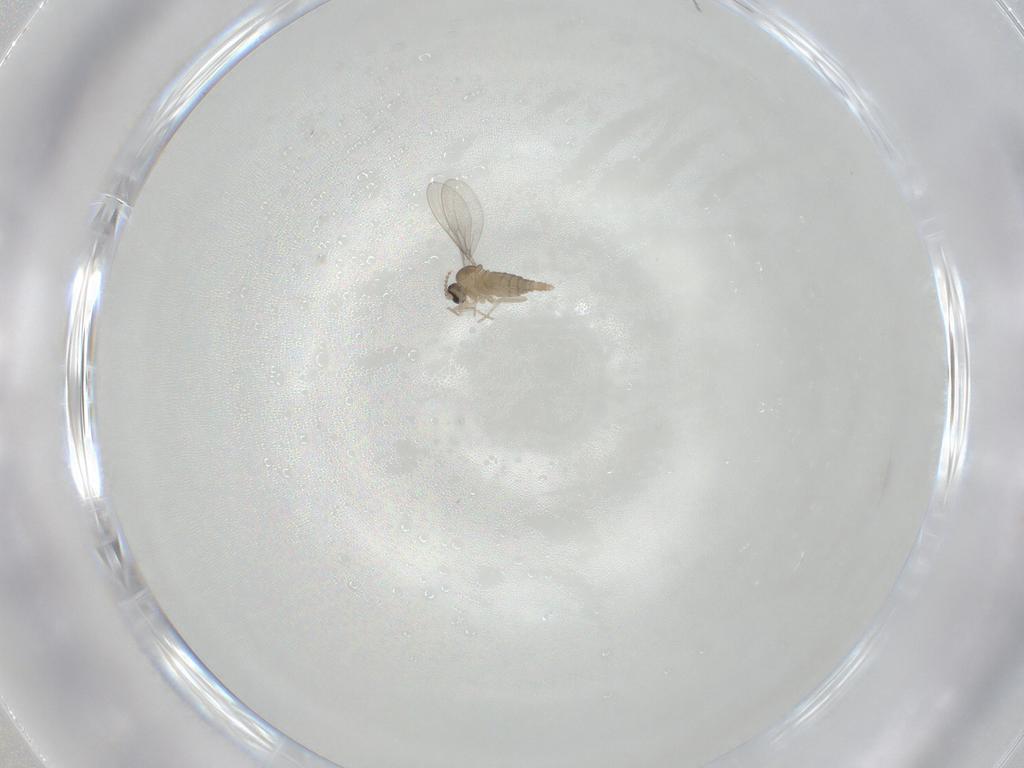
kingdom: Animalia
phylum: Arthropoda
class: Insecta
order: Diptera
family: Cecidomyiidae
